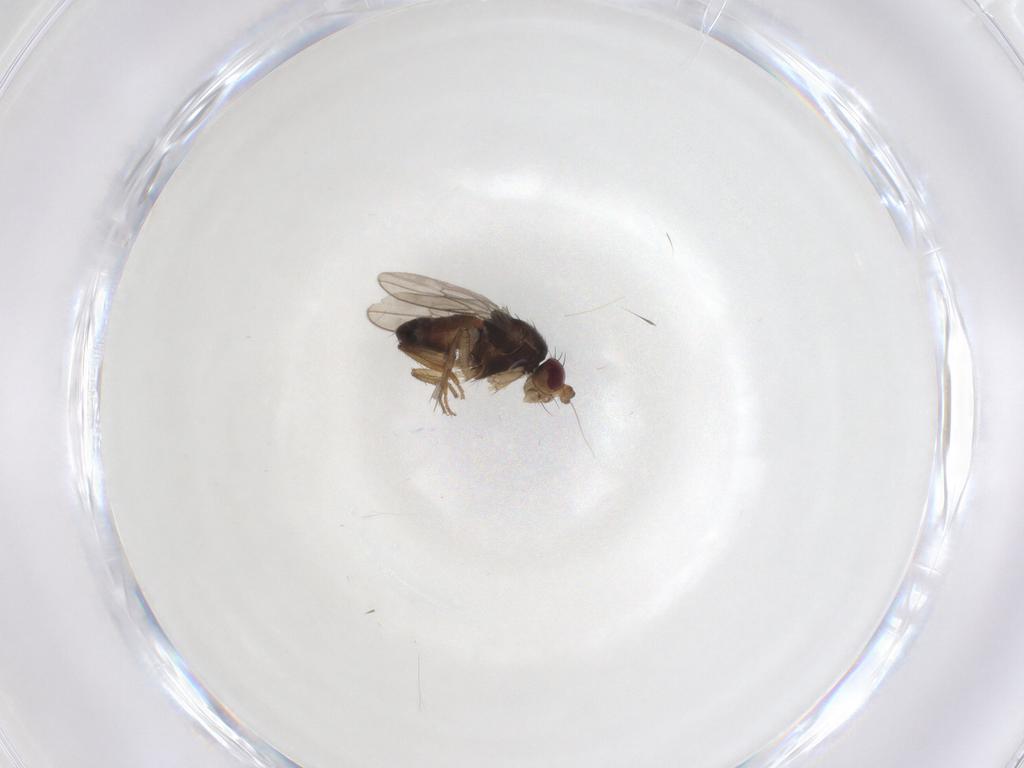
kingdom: Animalia
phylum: Arthropoda
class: Insecta
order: Diptera
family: Sphaeroceridae
